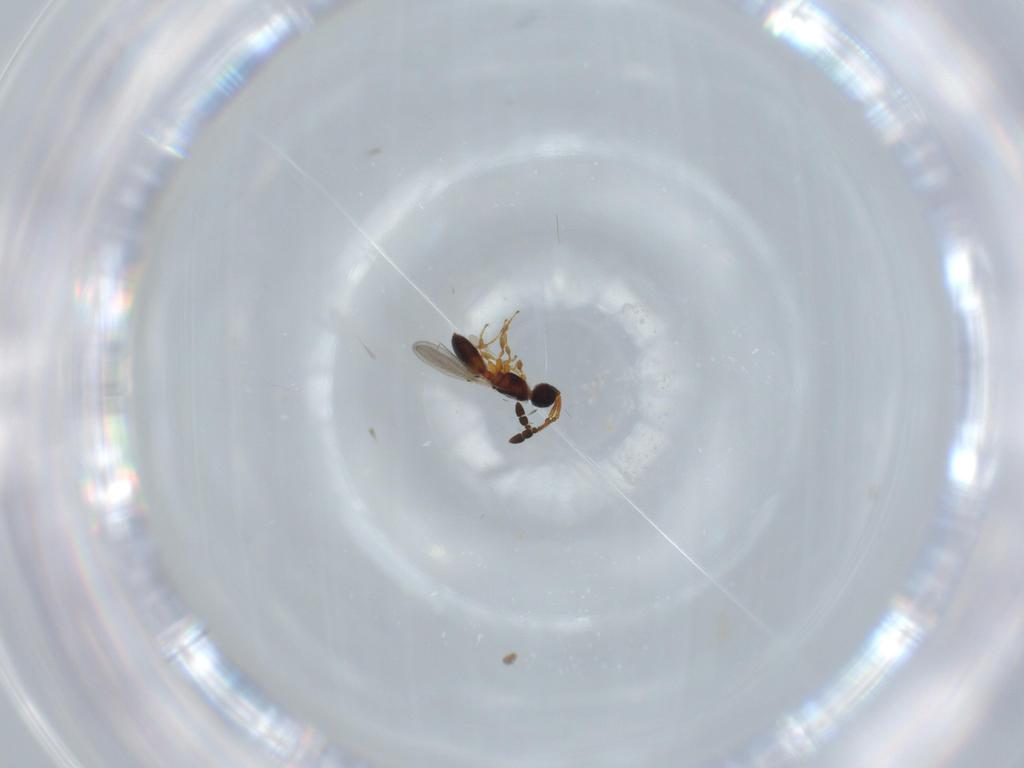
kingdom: Animalia
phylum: Arthropoda
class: Insecta
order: Hymenoptera
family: Diapriidae
